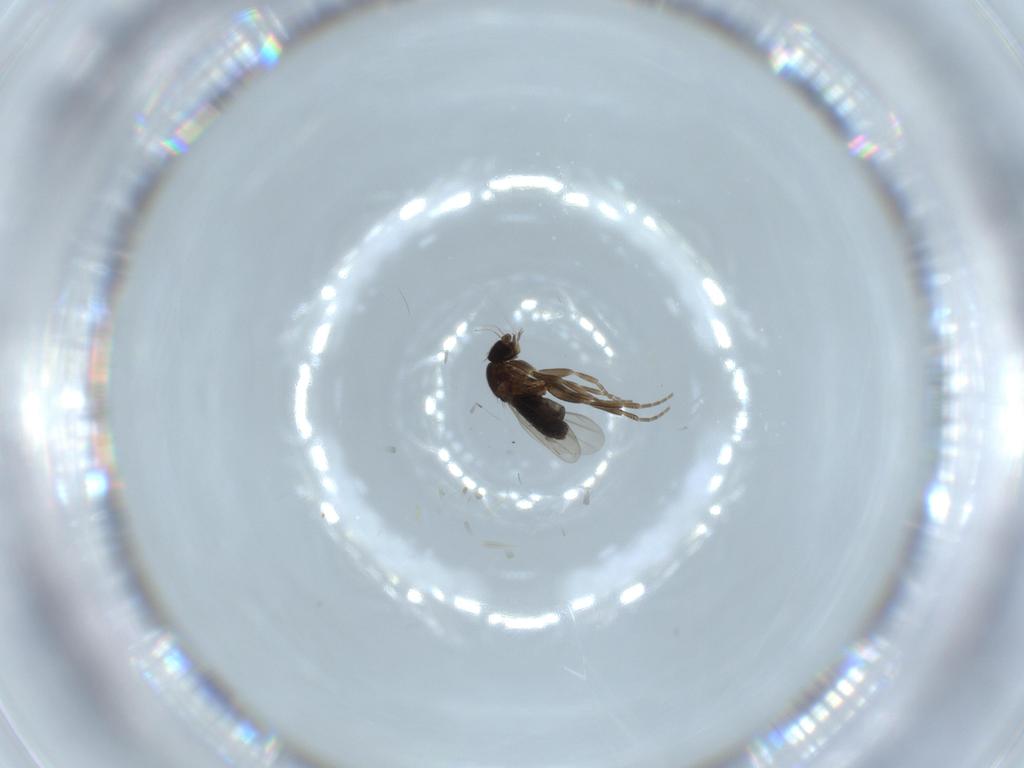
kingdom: Animalia
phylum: Arthropoda
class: Insecta
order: Diptera
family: Phoridae
